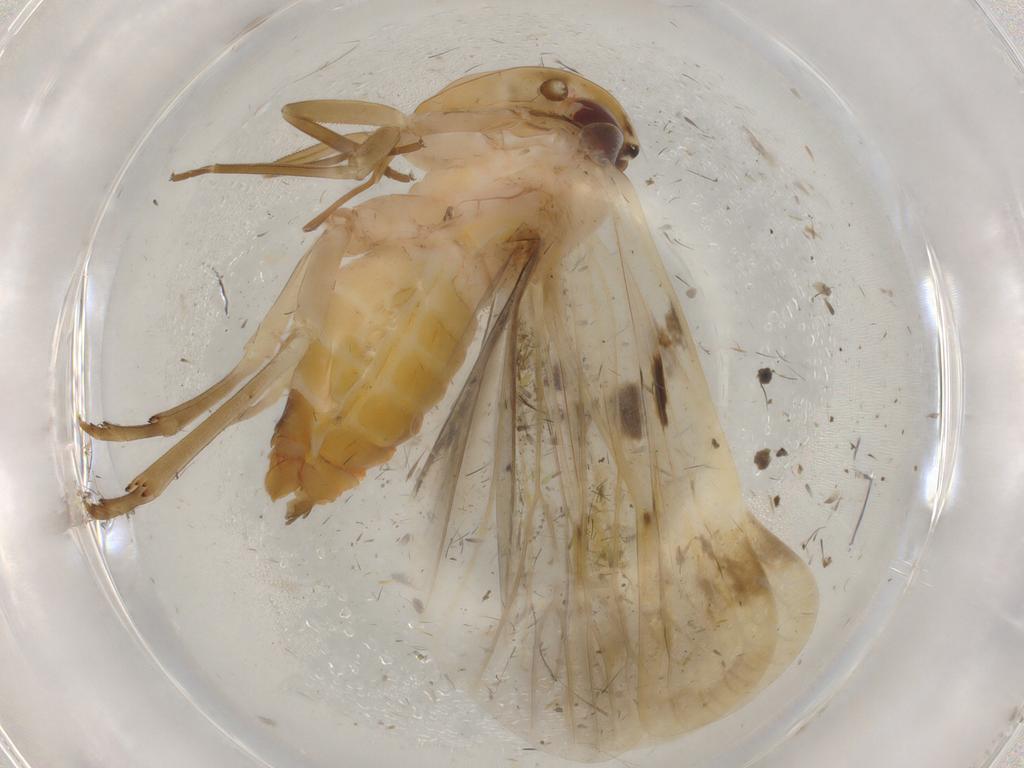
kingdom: Animalia
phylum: Arthropoda
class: Insecta
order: Hemiptera
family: Achilidae
